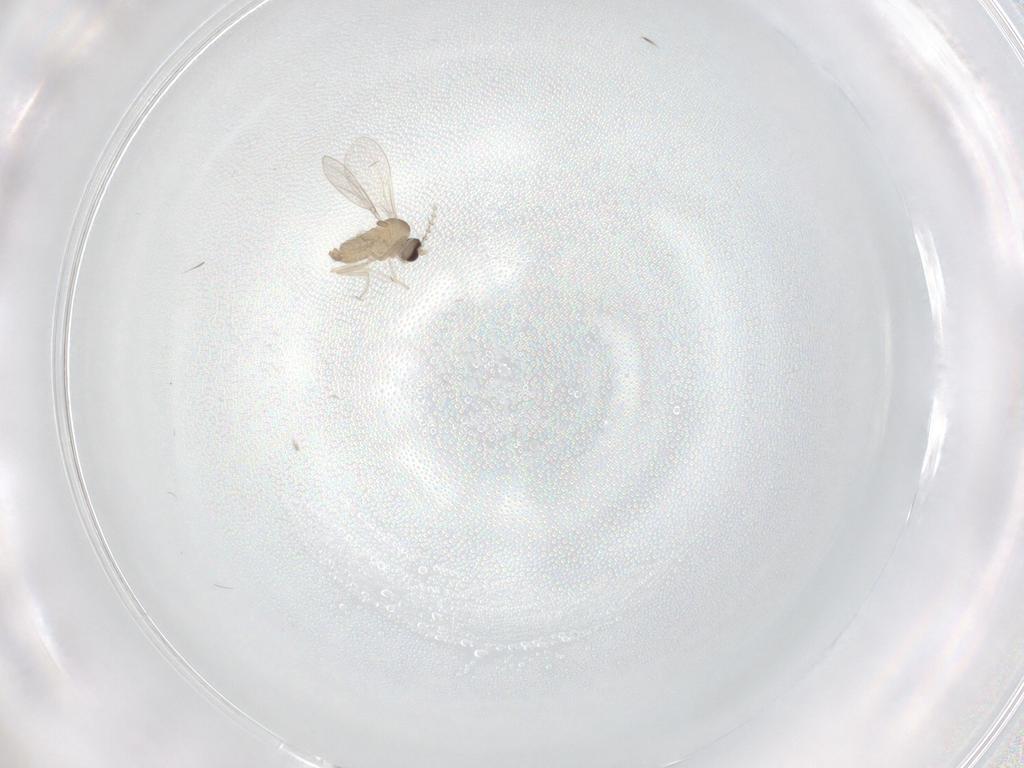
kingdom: Animalia
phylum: Arthropoda
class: Insecta
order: Diptera
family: Cecidomyiidae
